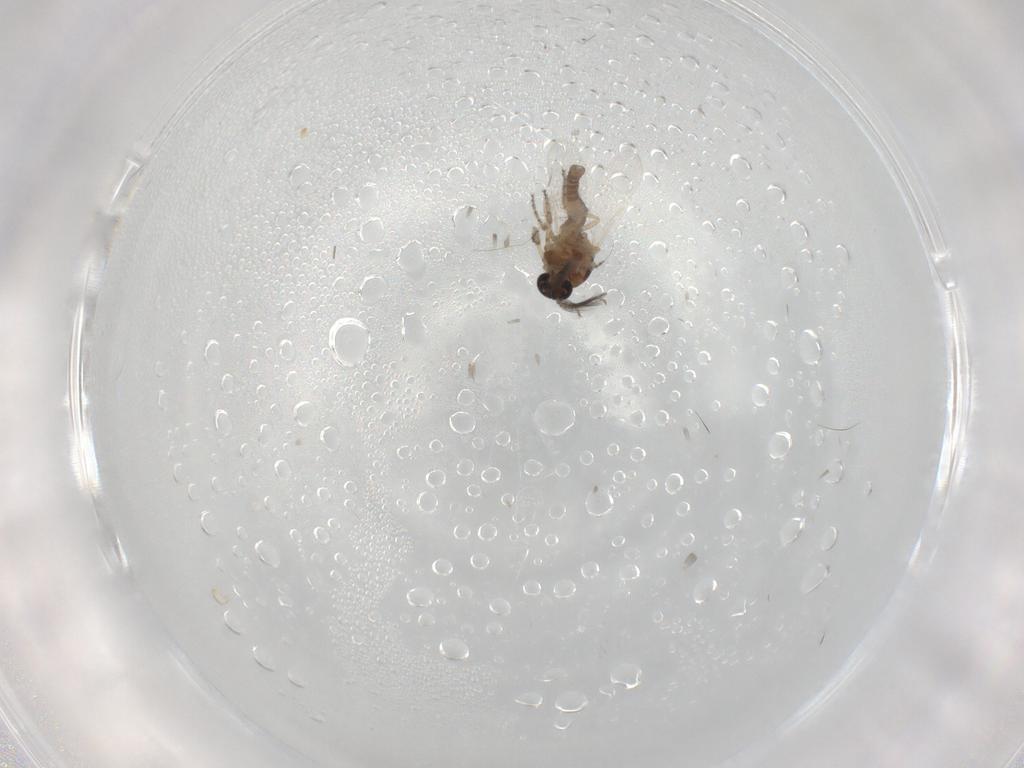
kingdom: Animalia
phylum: Arthropoda
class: Insecta
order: Diptera
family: Ceratopogonidae
